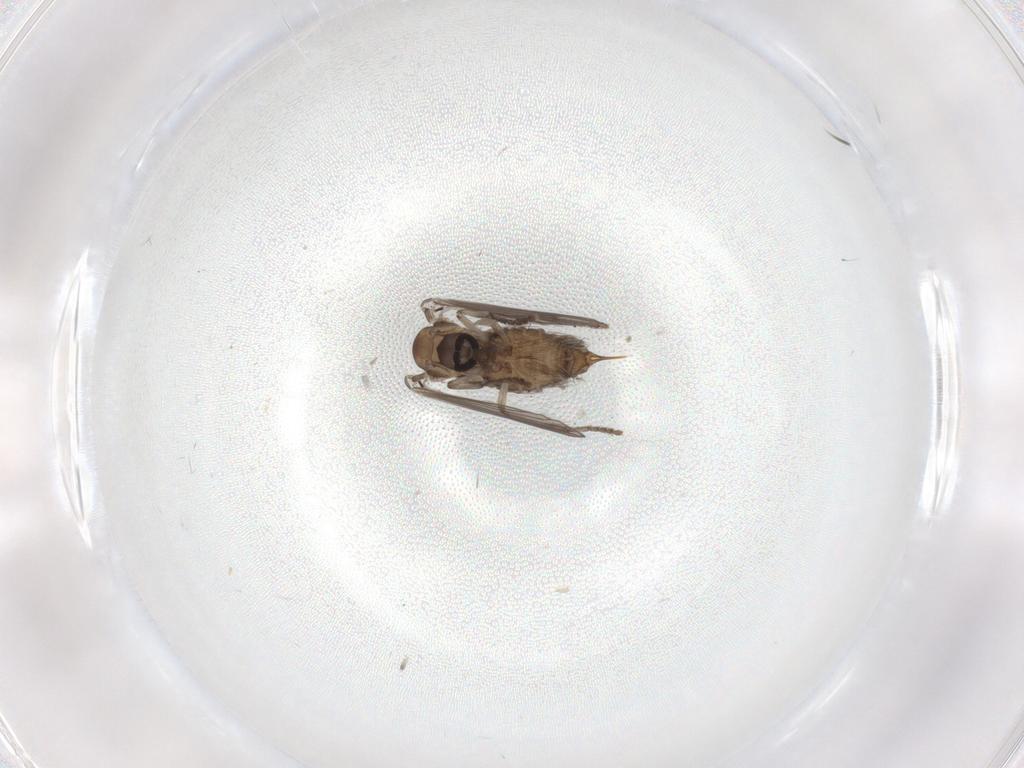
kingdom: Animalia
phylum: Arthropoda
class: Insecta
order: Diptera
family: Psychodidae
